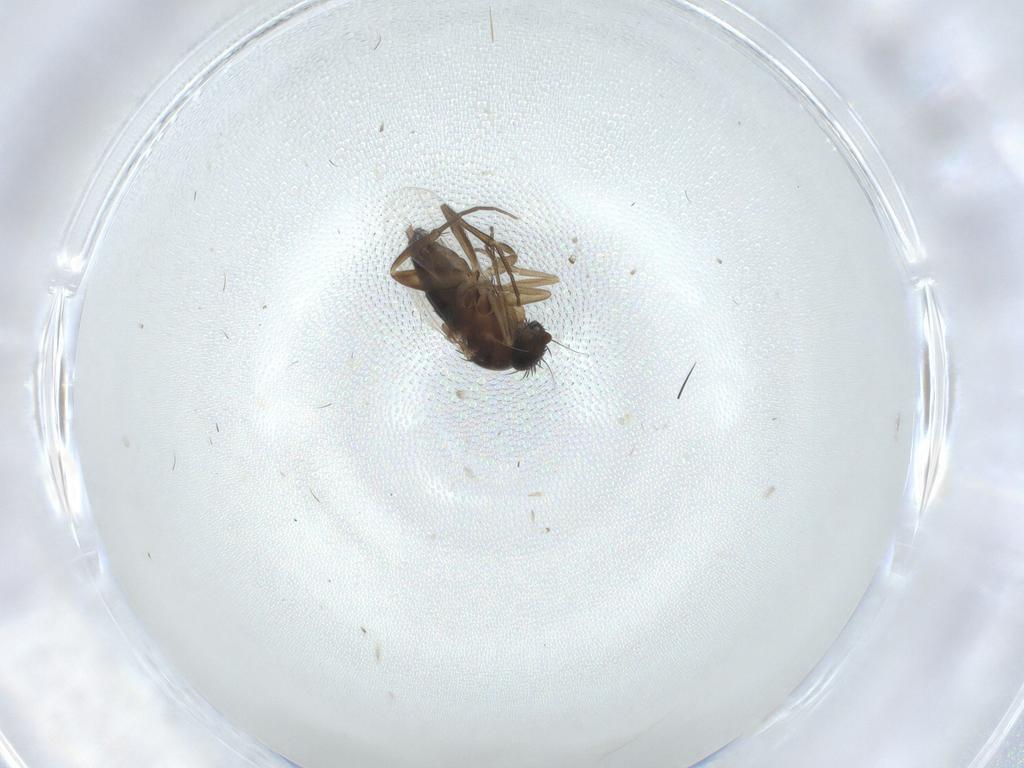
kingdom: Animalia
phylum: Arthropoda
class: Insecta
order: Diptera
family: Phoridae
